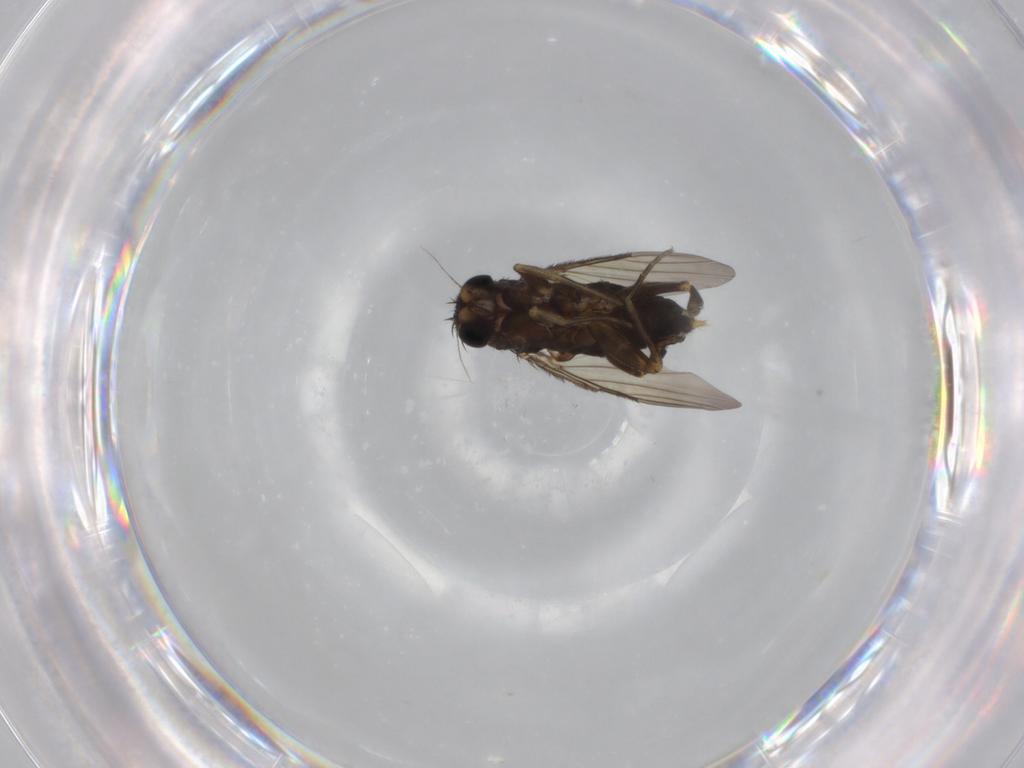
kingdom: Animalia
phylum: Arthropoda
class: Insecta
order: Diptera
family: Phoridae
